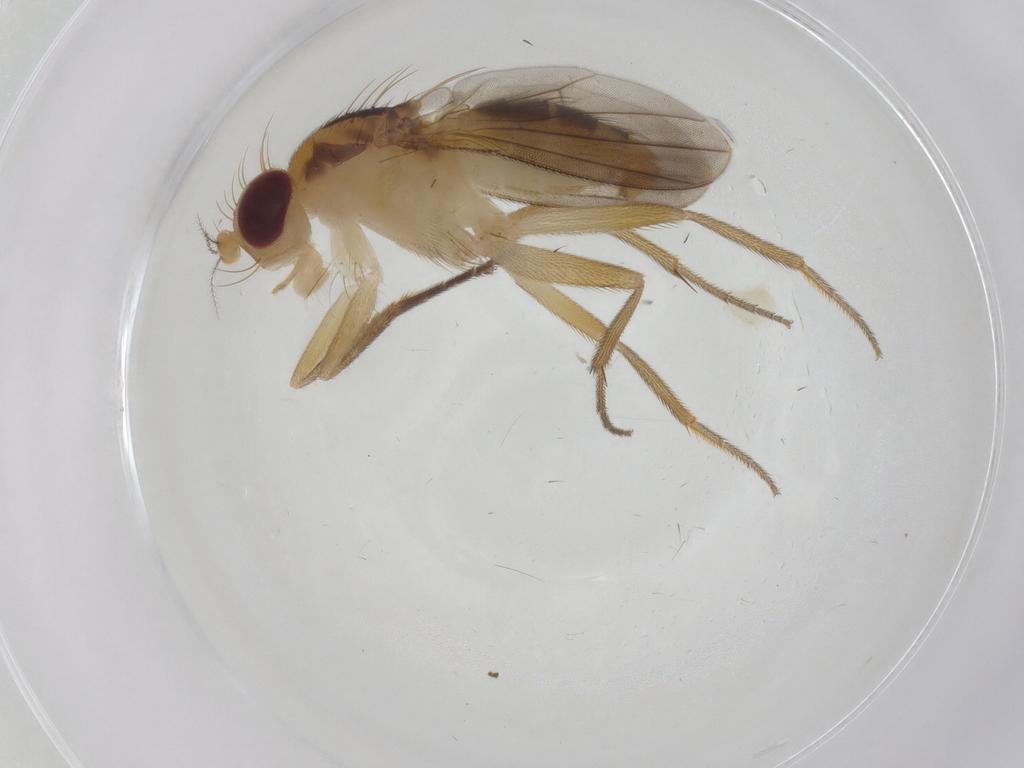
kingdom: Animalia
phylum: Arthropoda
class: Insecta
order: Diptera
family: Clusiidae
